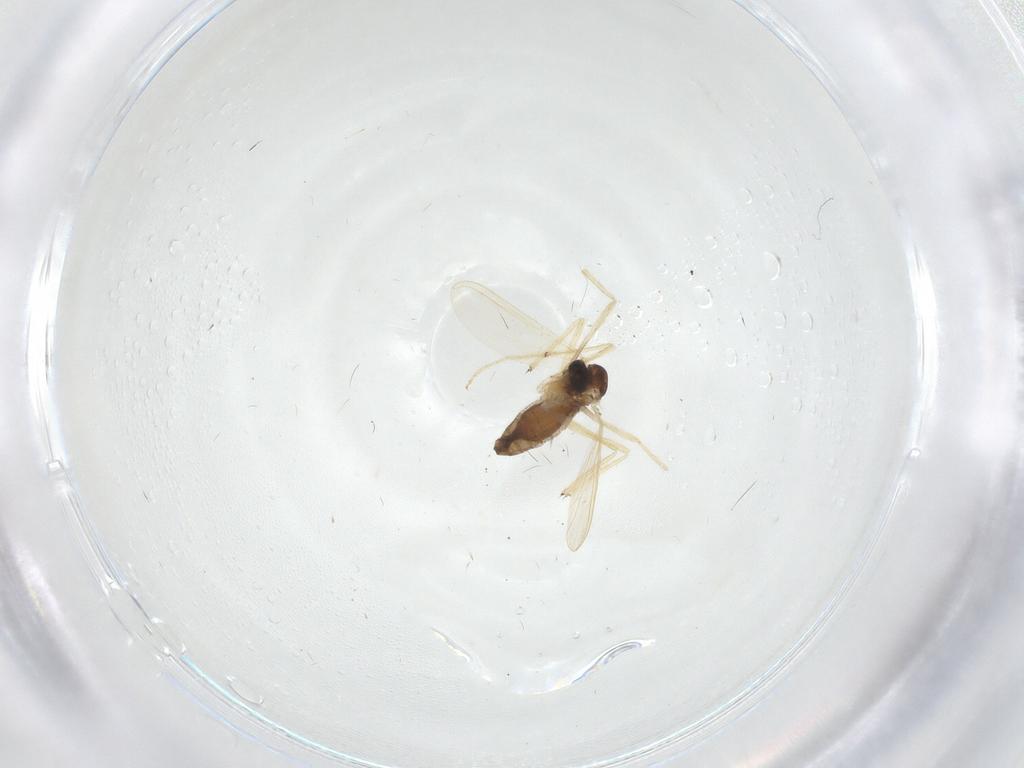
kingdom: Animalia
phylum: Arthropoda
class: Insecta
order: Diptera
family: Chironomidae
